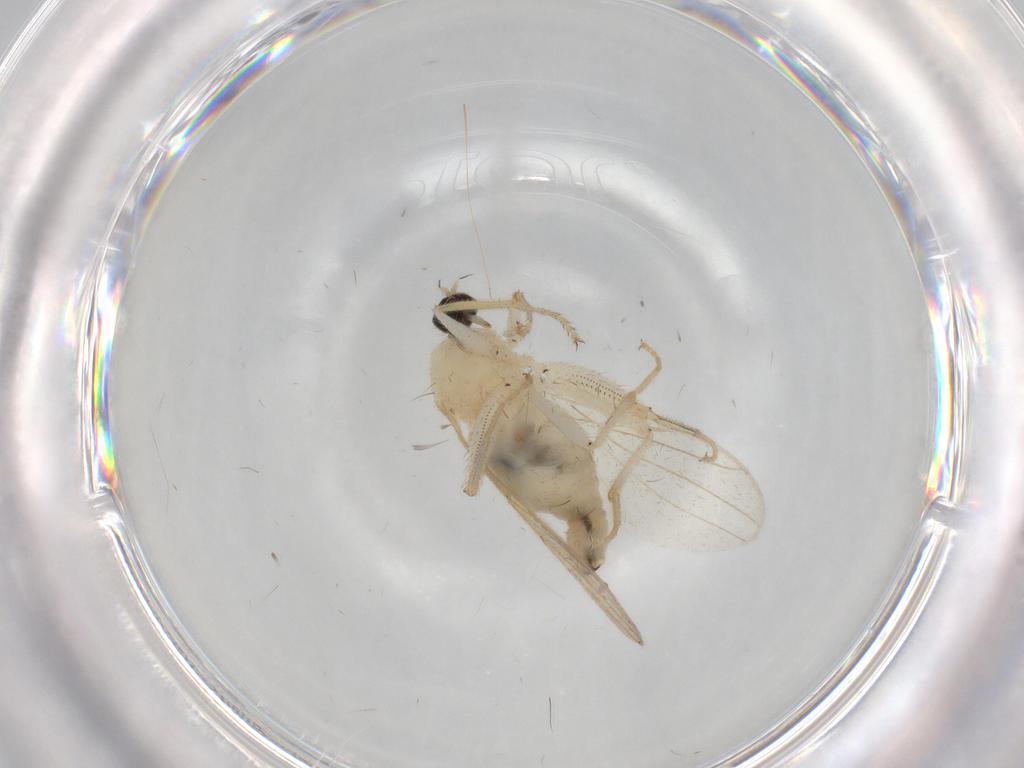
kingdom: Animalia
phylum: Arthropoda
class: Insecta
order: Diptera
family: Hybotidae
